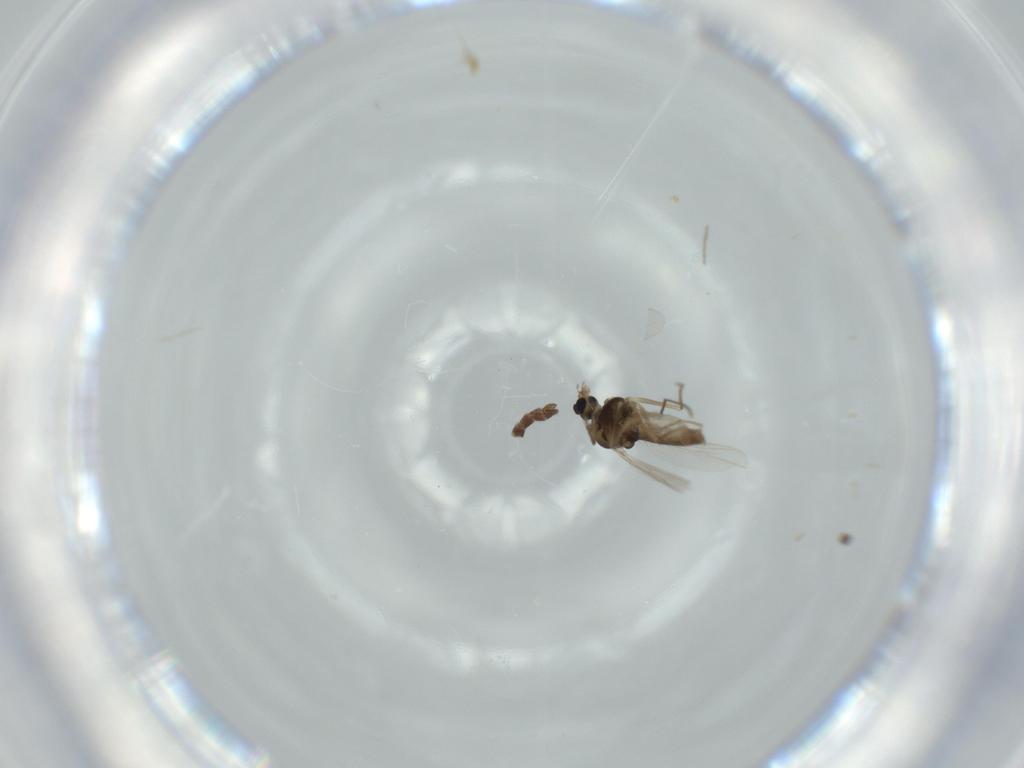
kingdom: Animalia
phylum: Arthropoda
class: Insecta
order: Diptera
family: Chironomidae
